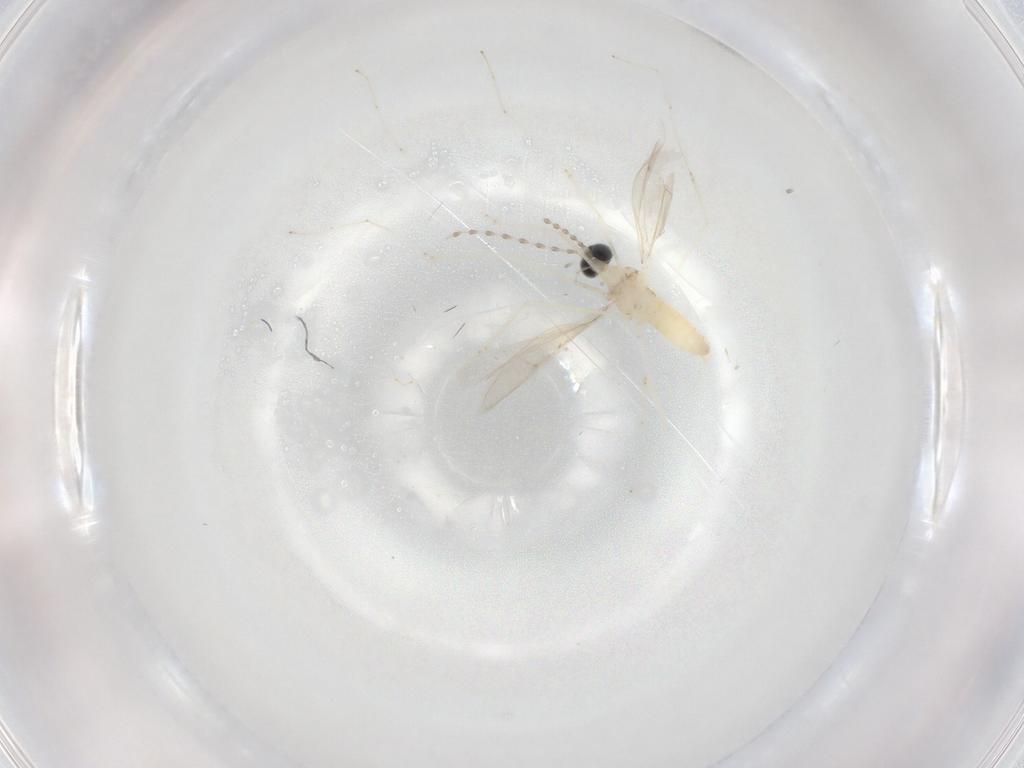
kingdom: Animalia
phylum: Arthropoda
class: Insecta
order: Diptera
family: Cecidomyiidae
